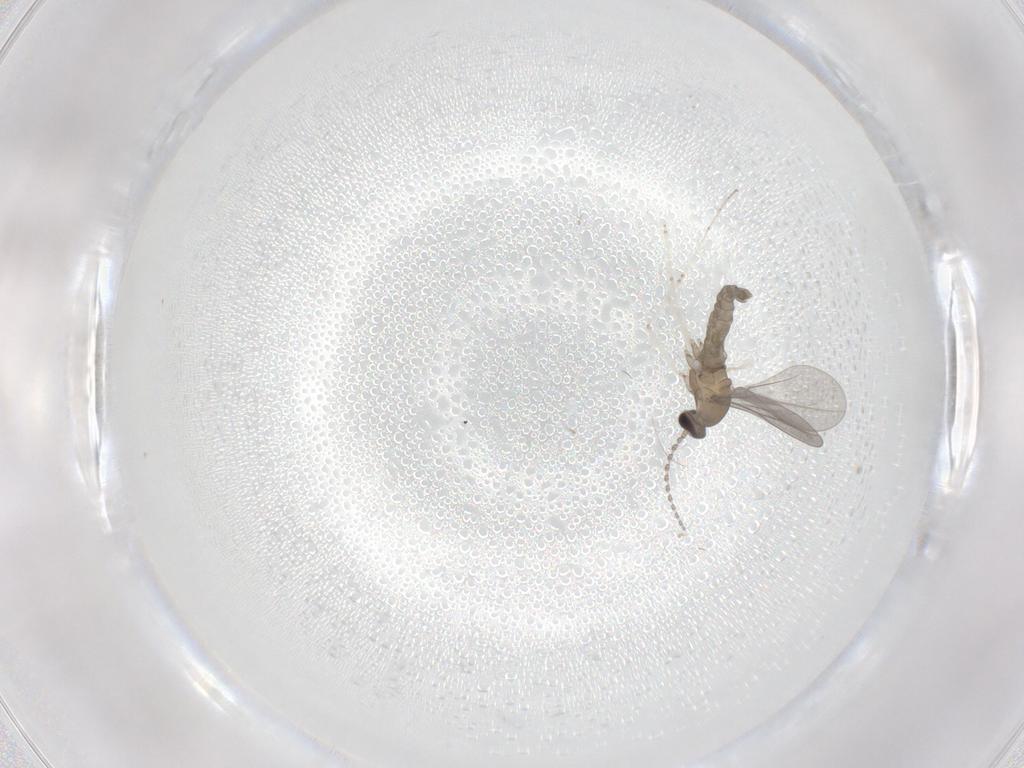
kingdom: Animalia
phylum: Arthropoda
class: Insecta
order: Diptera
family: Cecidomyiidae
